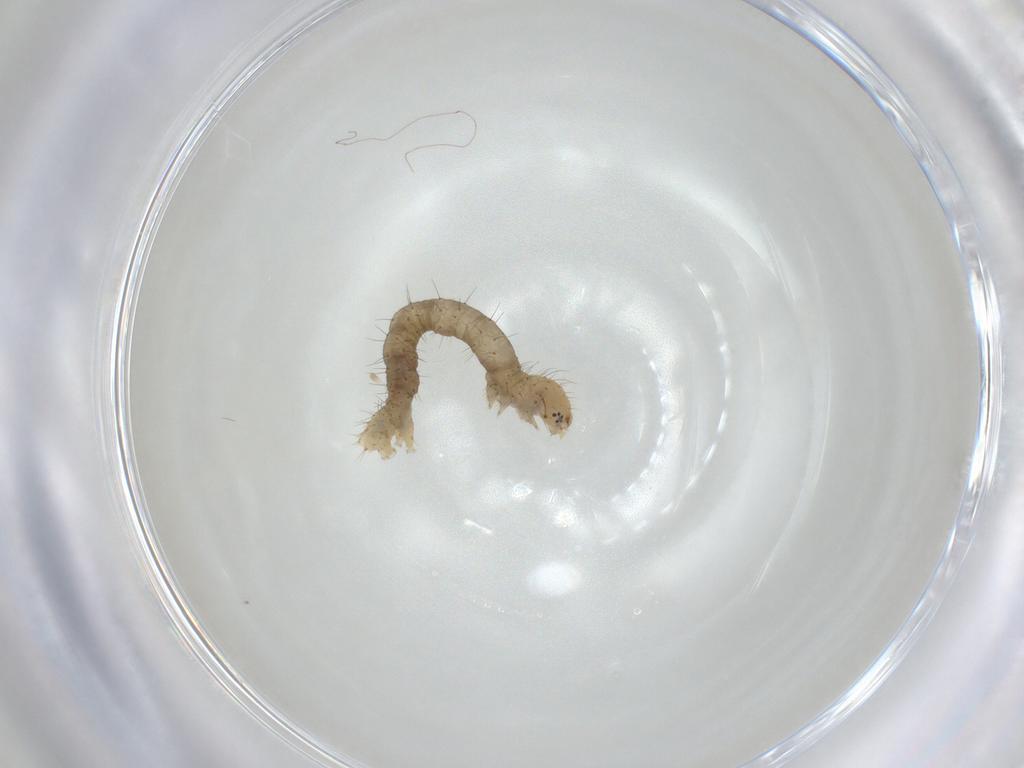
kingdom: Animalia
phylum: Arthropoda
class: Insecta
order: Lepidoptera
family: Geometridae
